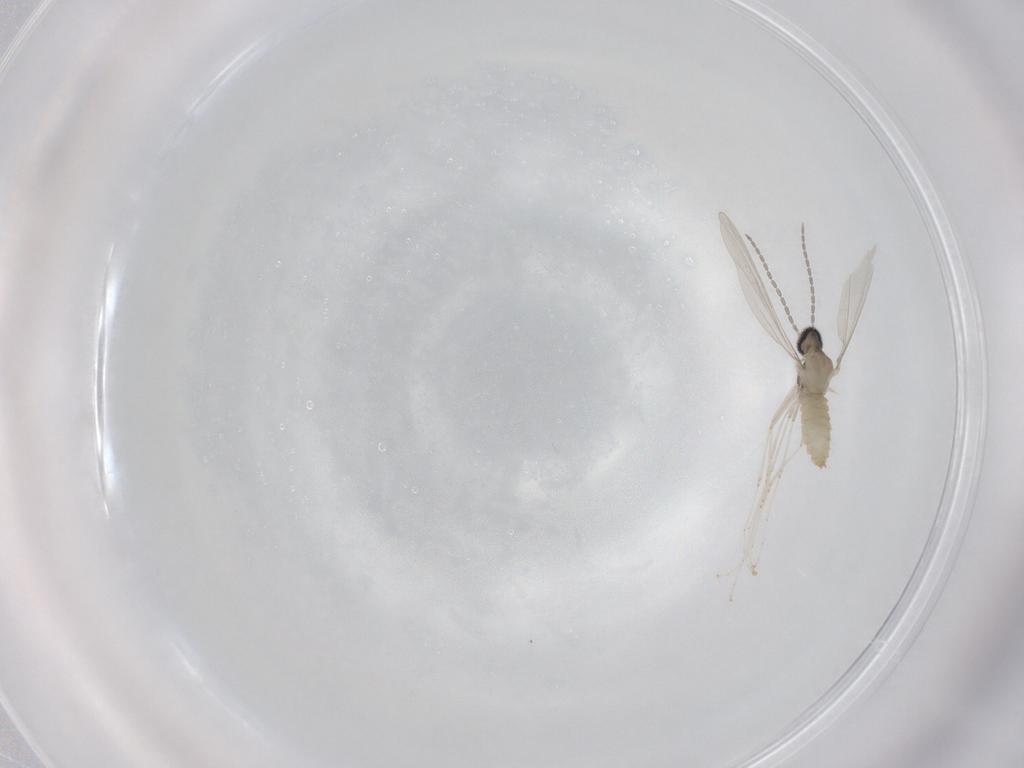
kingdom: Animalia
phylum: Arthropoda
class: Insecta
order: Diptera
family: Cecidomyiidae
